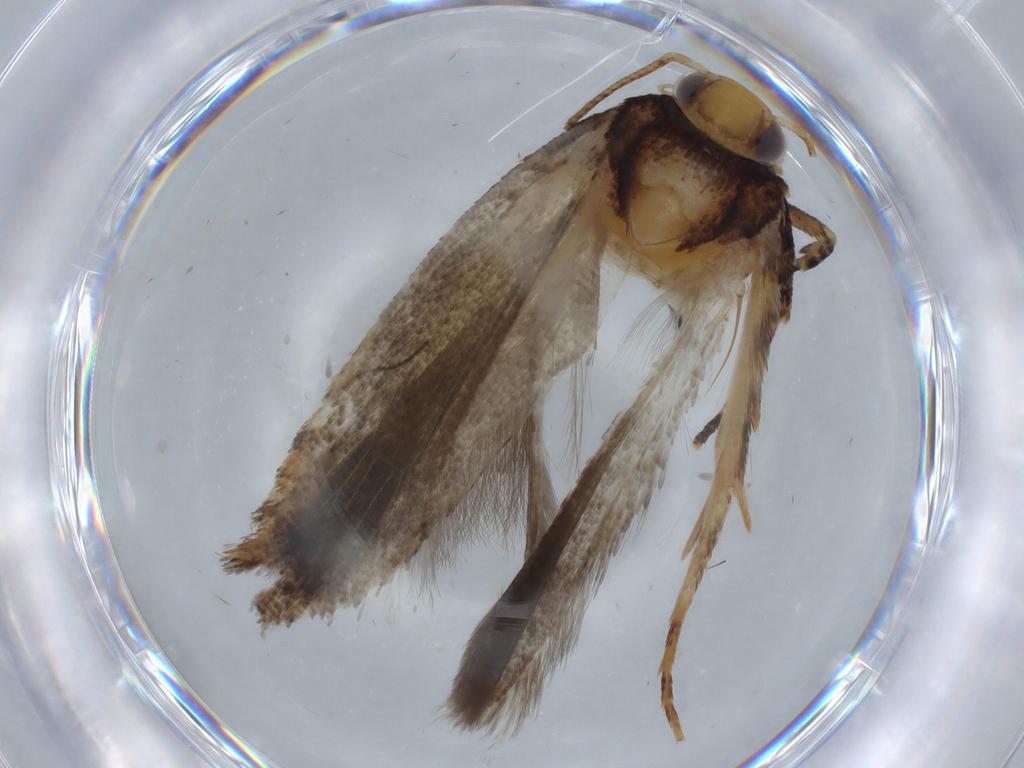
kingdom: Animalia
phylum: Arthropoda
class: Insecta
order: Lepidoptera
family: Gelechiidae
